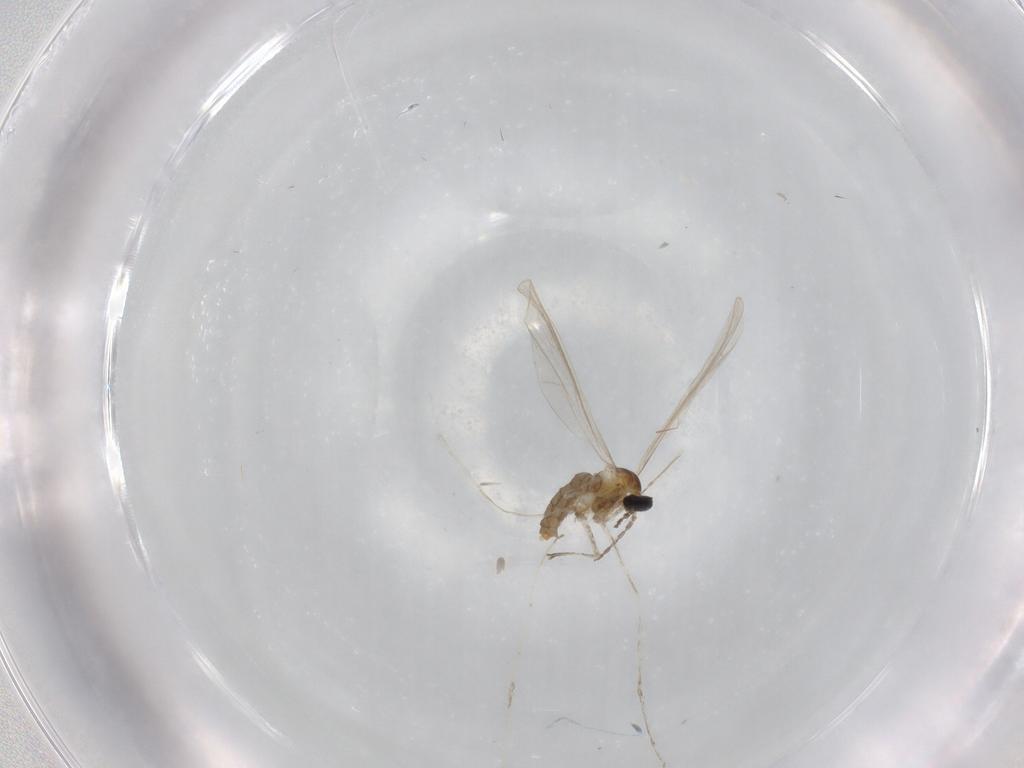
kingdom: Animalia
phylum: Arthropoda
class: Insecta
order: Diptera
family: Cecidomyiidae
